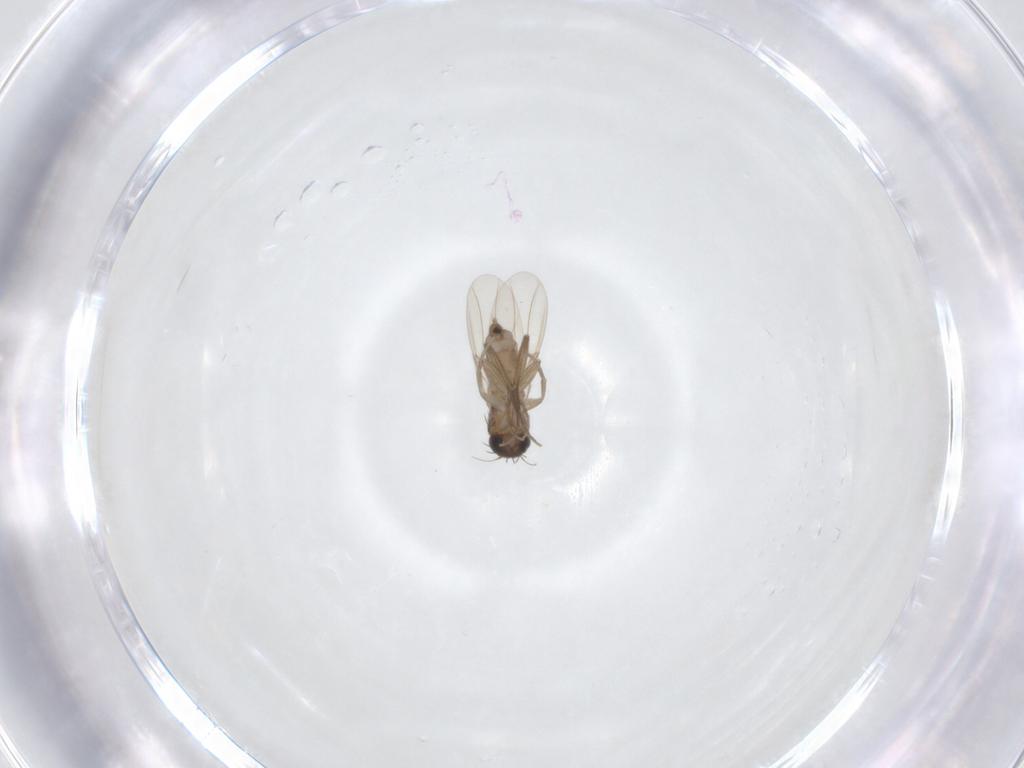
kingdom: Animalia
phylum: Arthropoda
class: Insecta
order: Diptera
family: Phoridae
